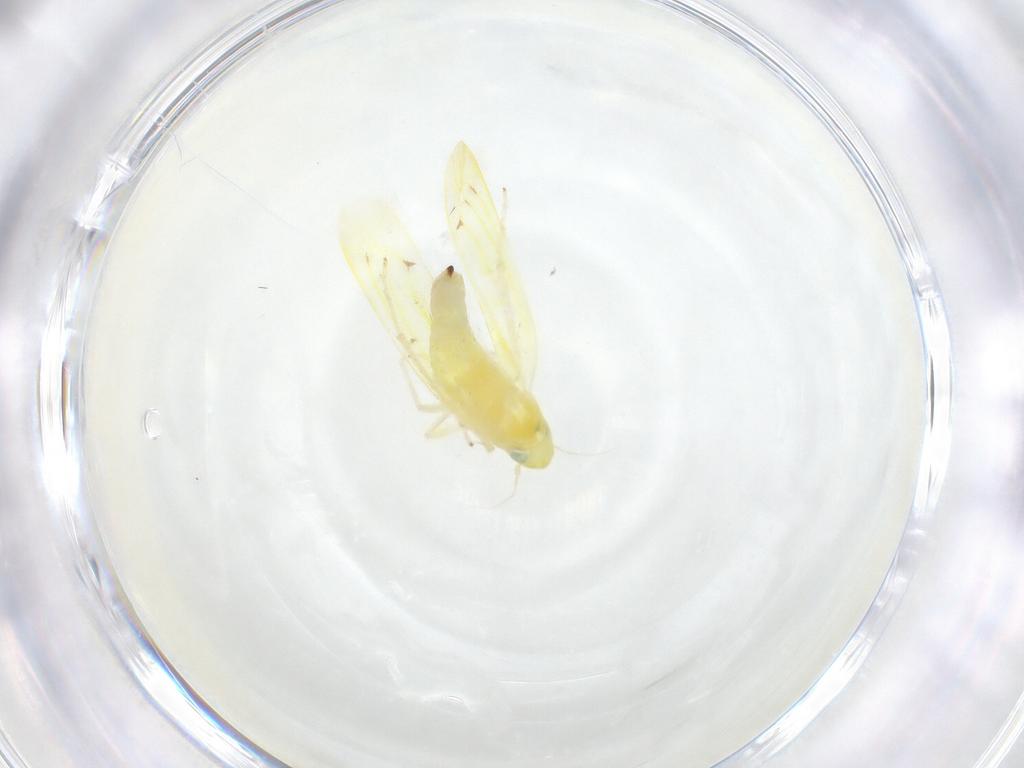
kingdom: Animalia
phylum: Arthropoda
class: Insecta
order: Hemiptera
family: Cicadellidae
